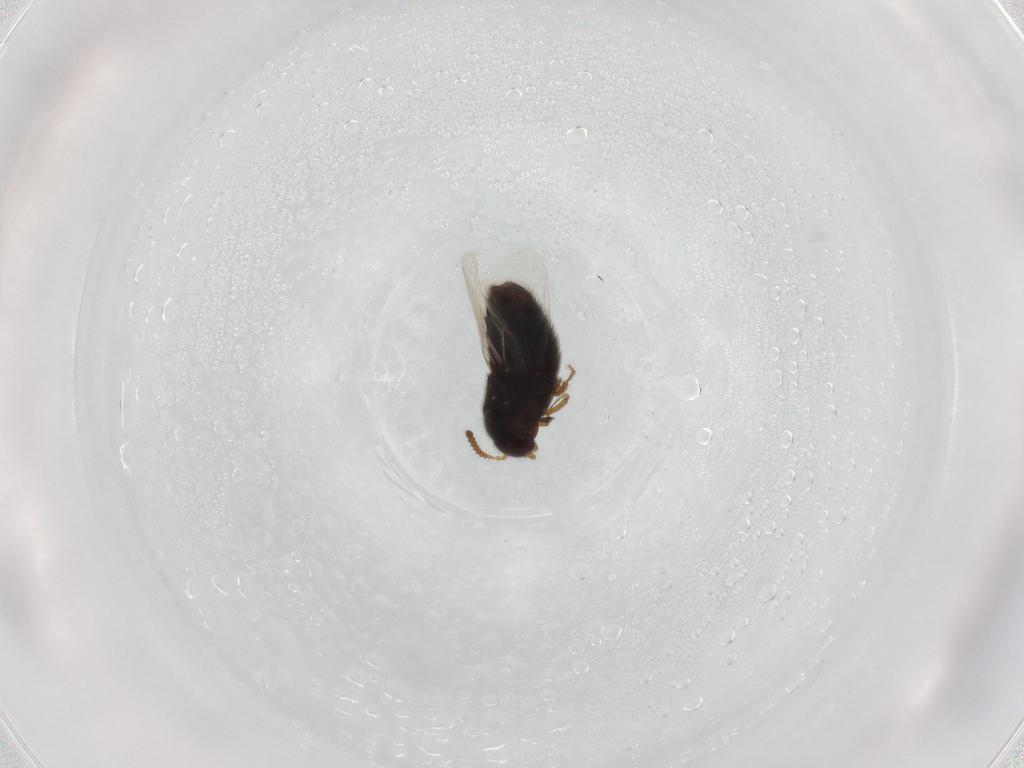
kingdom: Animalia
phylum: Arthropoda
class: Insecta
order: Coleoptera
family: Staphylinidae
